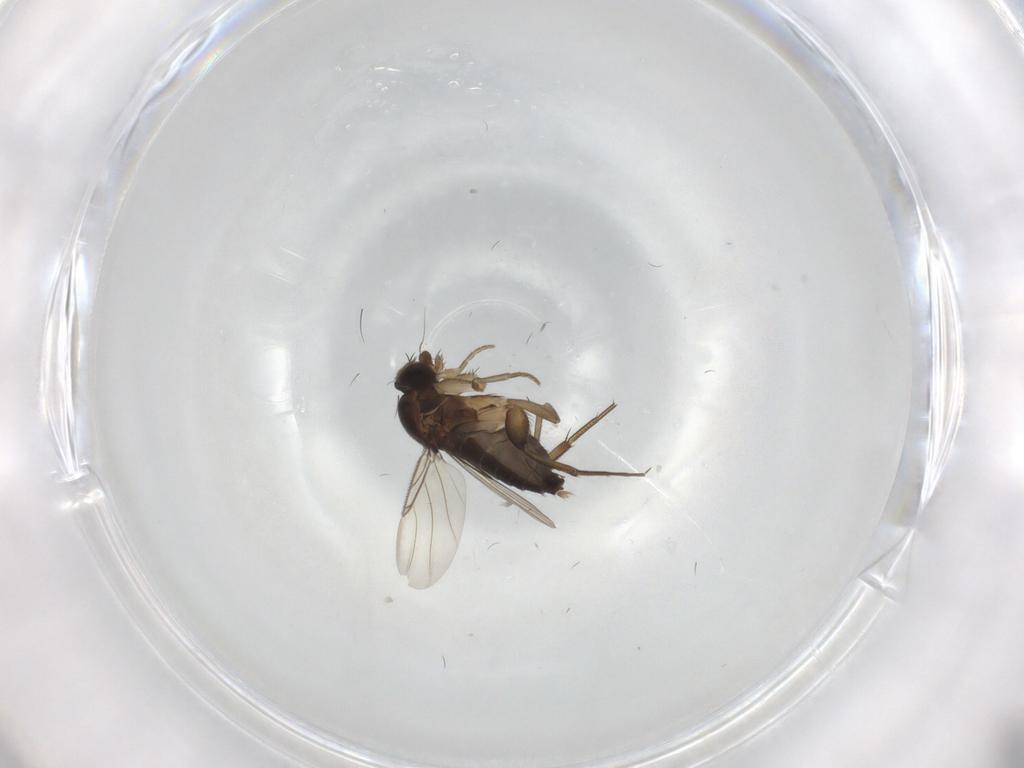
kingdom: Animalia
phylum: Arthropoda
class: Insecta
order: Diptera
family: Phoridae
